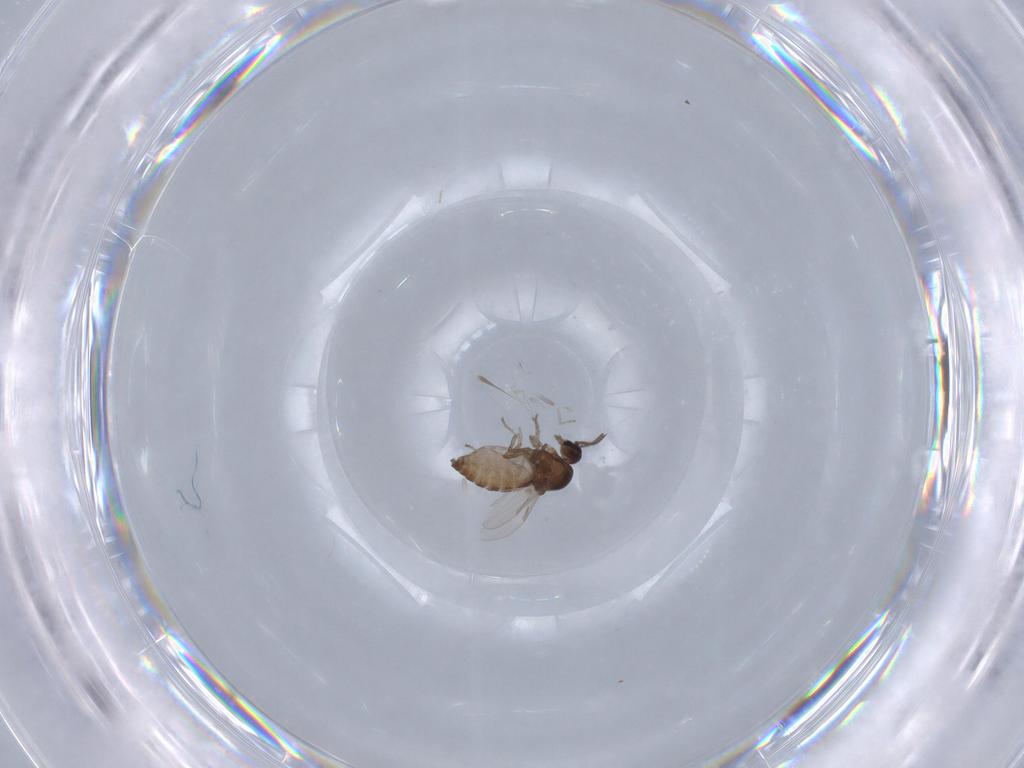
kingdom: Animalia
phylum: Arthropoda
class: Insecta
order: Diptera
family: Ceratopogonidae
